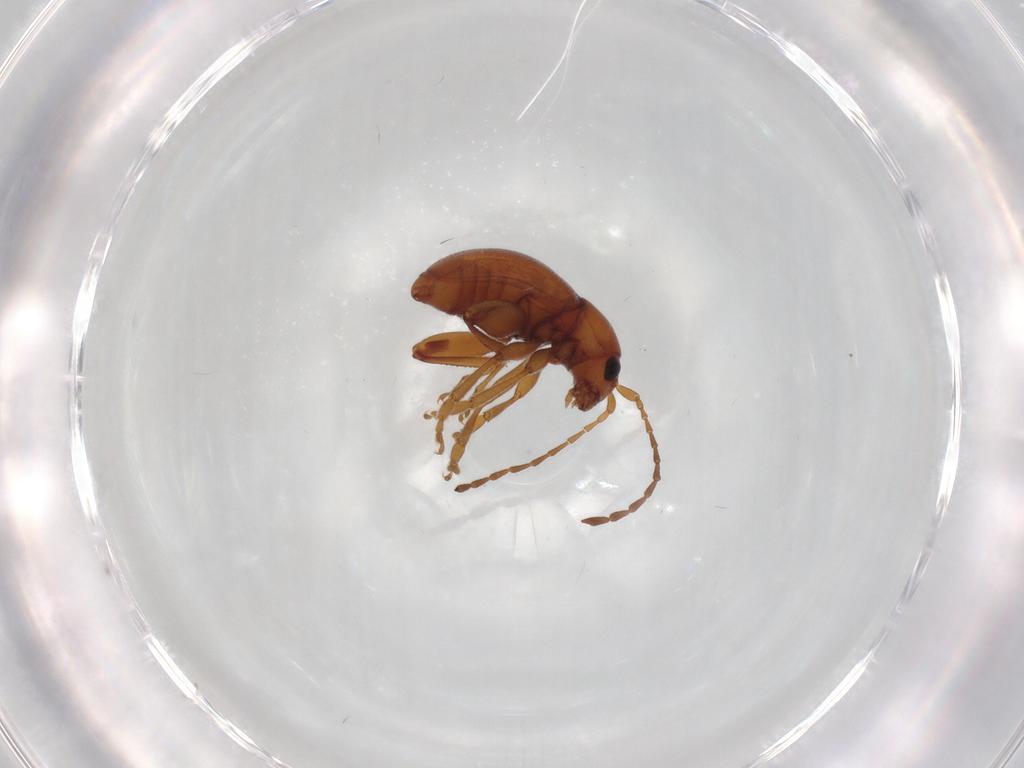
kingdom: Animalia
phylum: Arthropoda
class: Insecta
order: Coleoptera
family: Chrysomelidae
